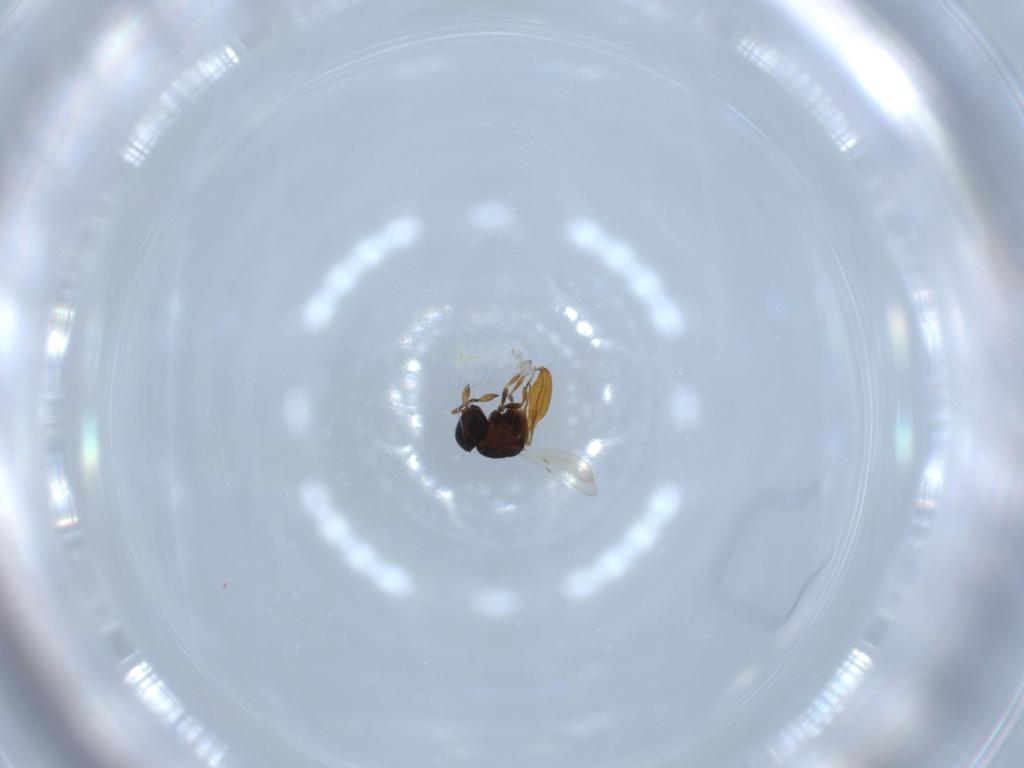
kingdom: Animalia
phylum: Arthropoda
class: Insecta
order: Hymenoptera
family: Scelionidae
